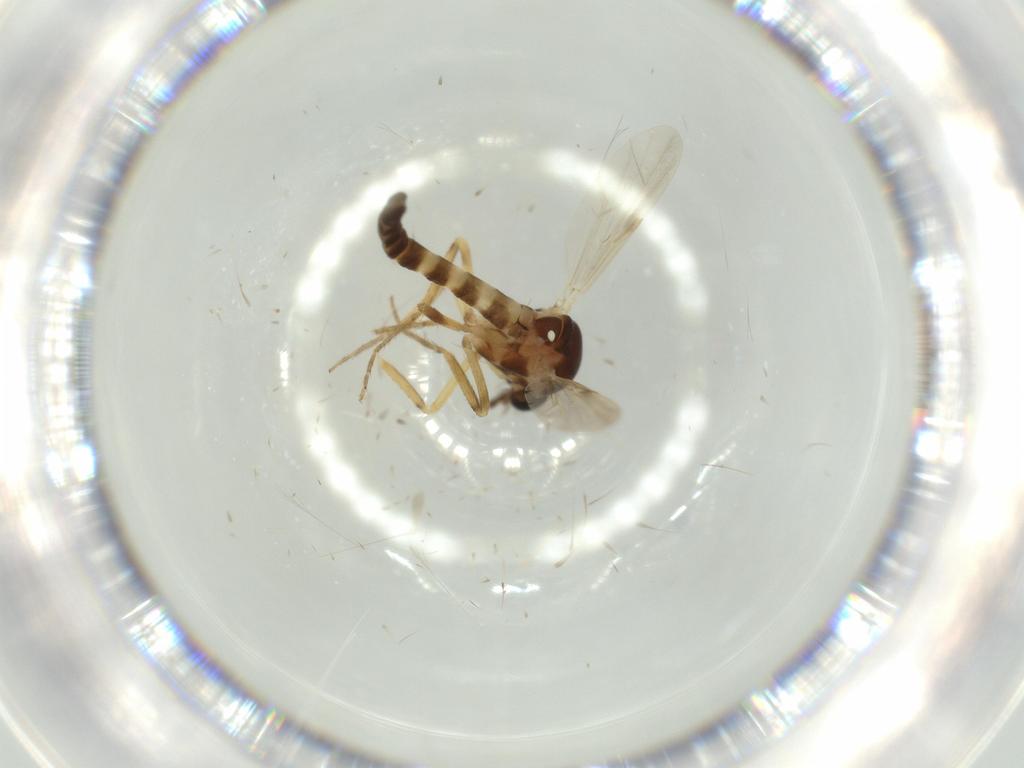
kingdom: Animalia
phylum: Arthropoda
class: Insecta
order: Diptera
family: Ceratopogonidae
